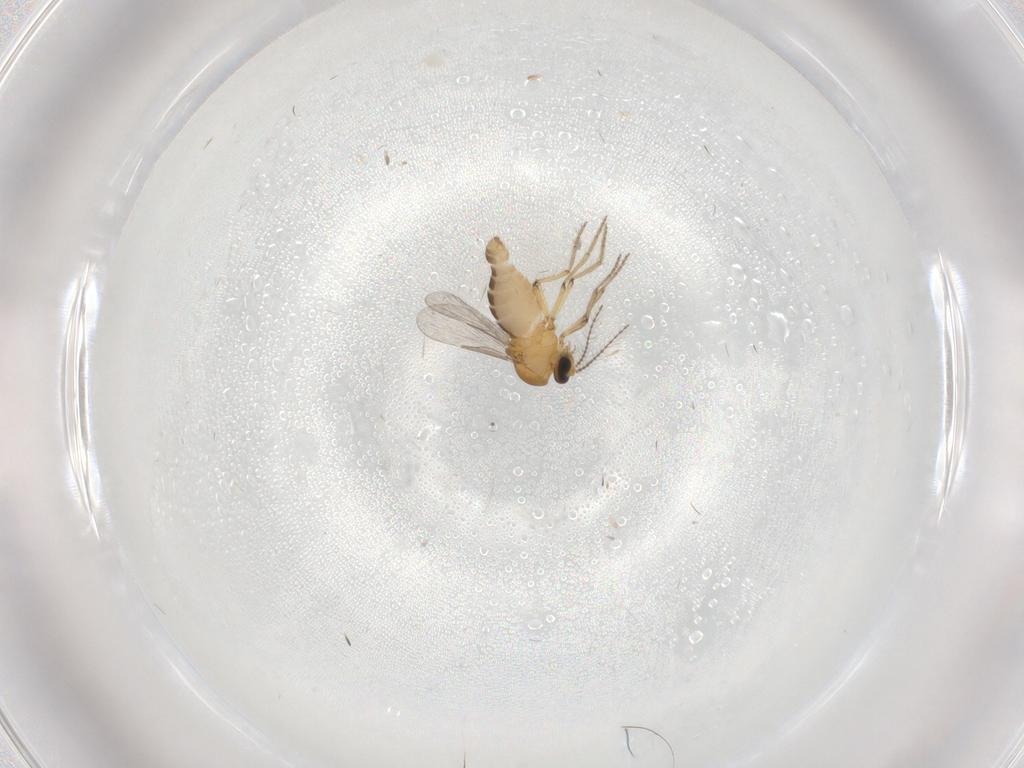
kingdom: Animalia
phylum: Arthropoda
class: Insecta
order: Diptera
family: Ceratopogonidae
